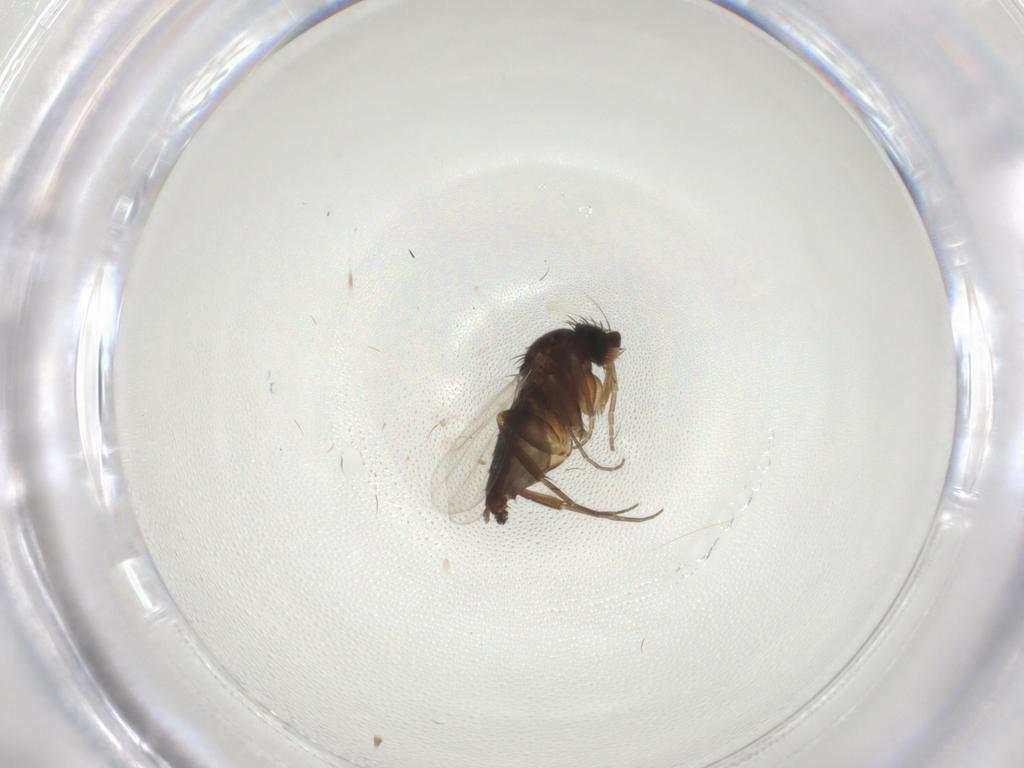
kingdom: Animalia
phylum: Arthropoda
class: Insecta
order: Diptera
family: Phoridae
